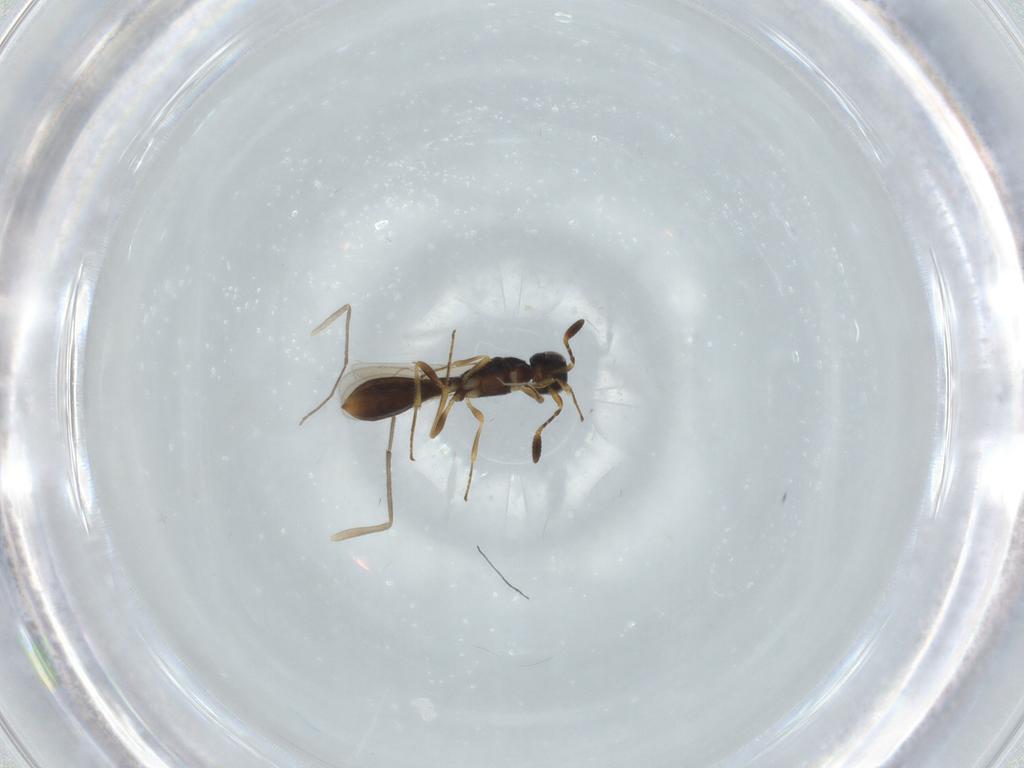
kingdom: Animalia
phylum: Arthropoda
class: Insecta
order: Hymenoptera
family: Scelionidae
